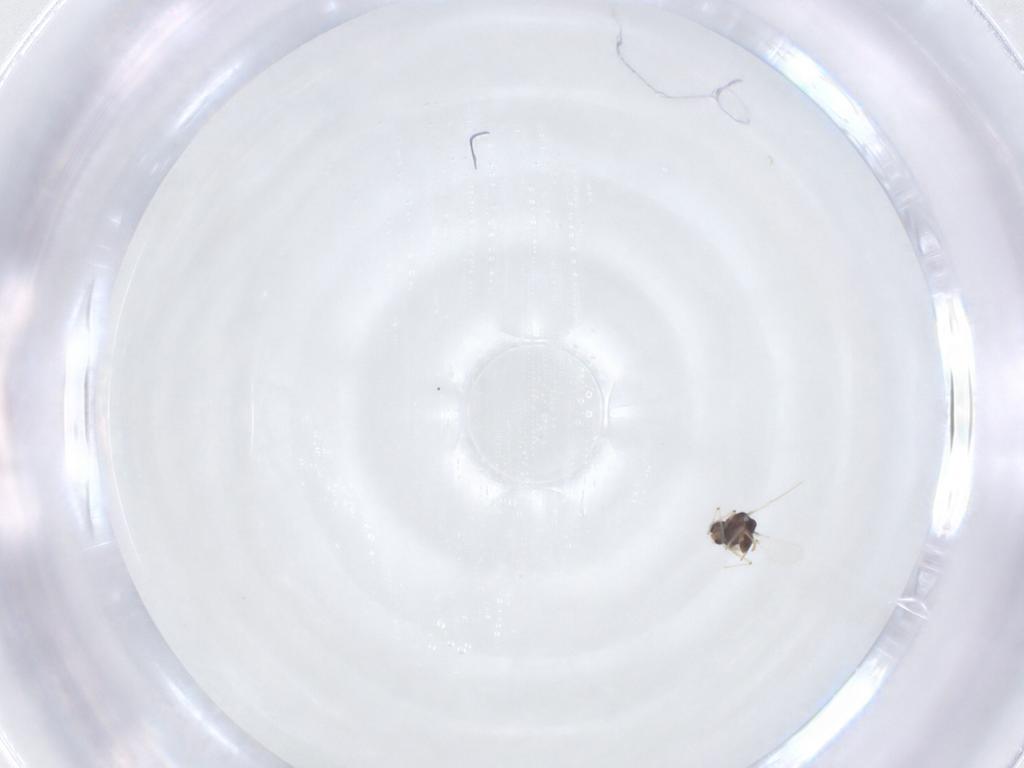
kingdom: Animalia
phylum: Arthropoda
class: Insecta
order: Diptera
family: Chironomidae
